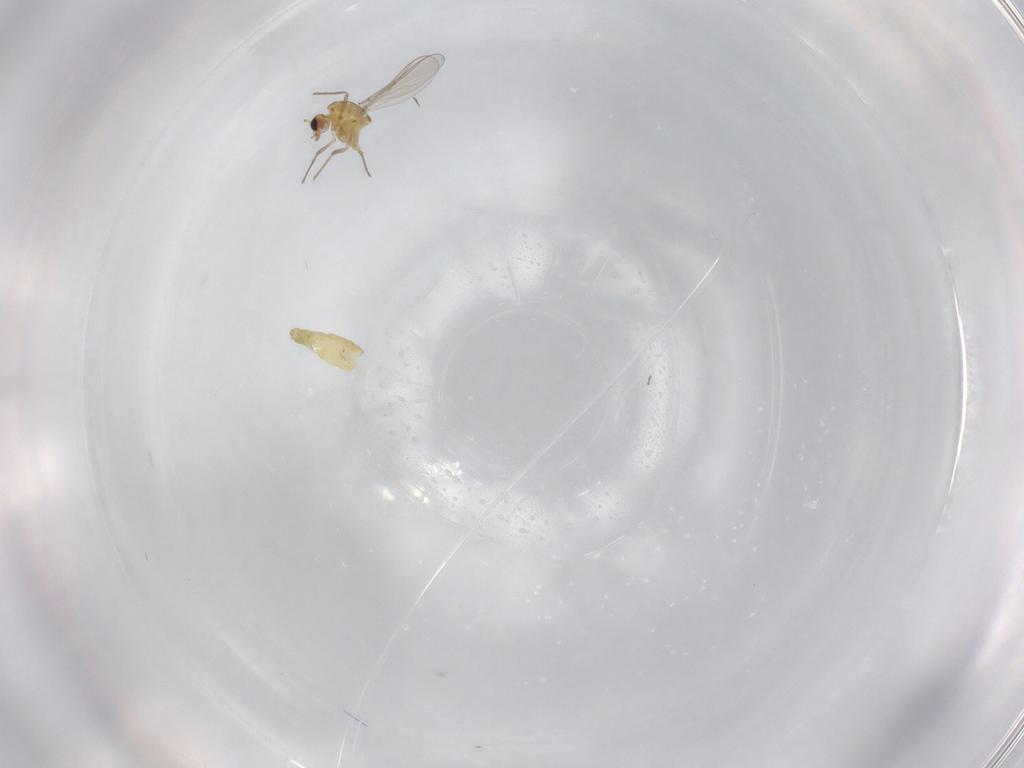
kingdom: Animalia
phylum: Arthropoda
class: Insecta
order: Diptera
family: Chironomidae
